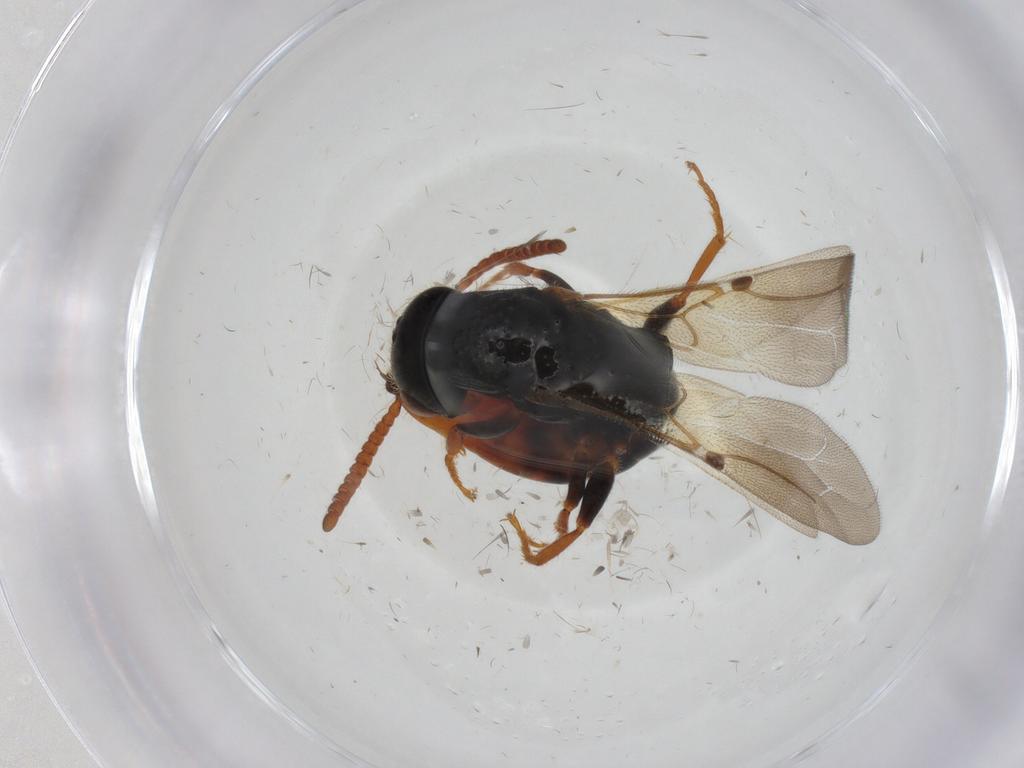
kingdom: Animalia
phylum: Arthropoda
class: Insecta
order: Hymenoptera
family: Bethylidae
